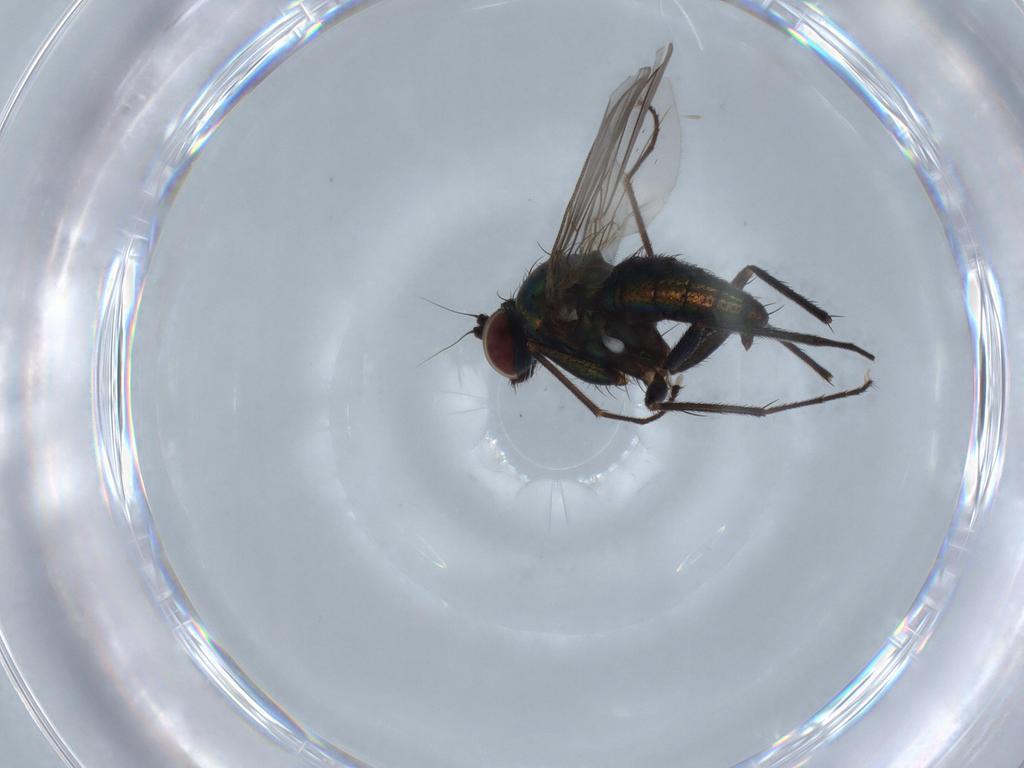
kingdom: Animalia
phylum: Arthropoda
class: Insecta
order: Diptera
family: Dolichopodidae
